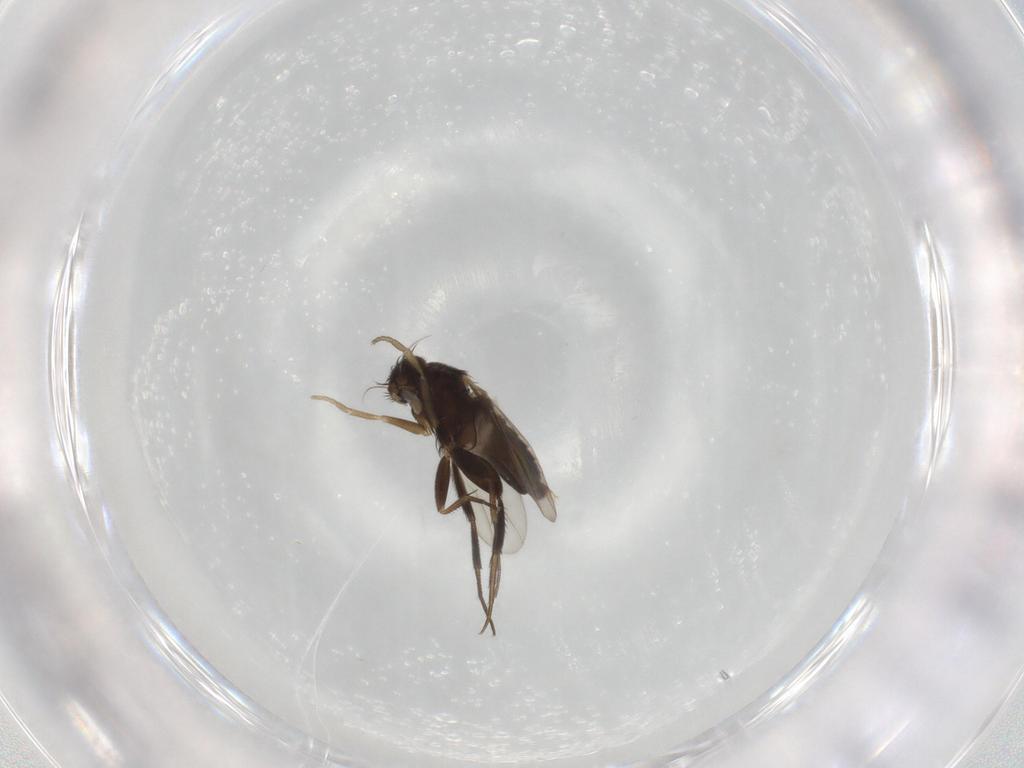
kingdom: Animalia
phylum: Arthropoda
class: Insecta
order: Diptera
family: Phoridae
